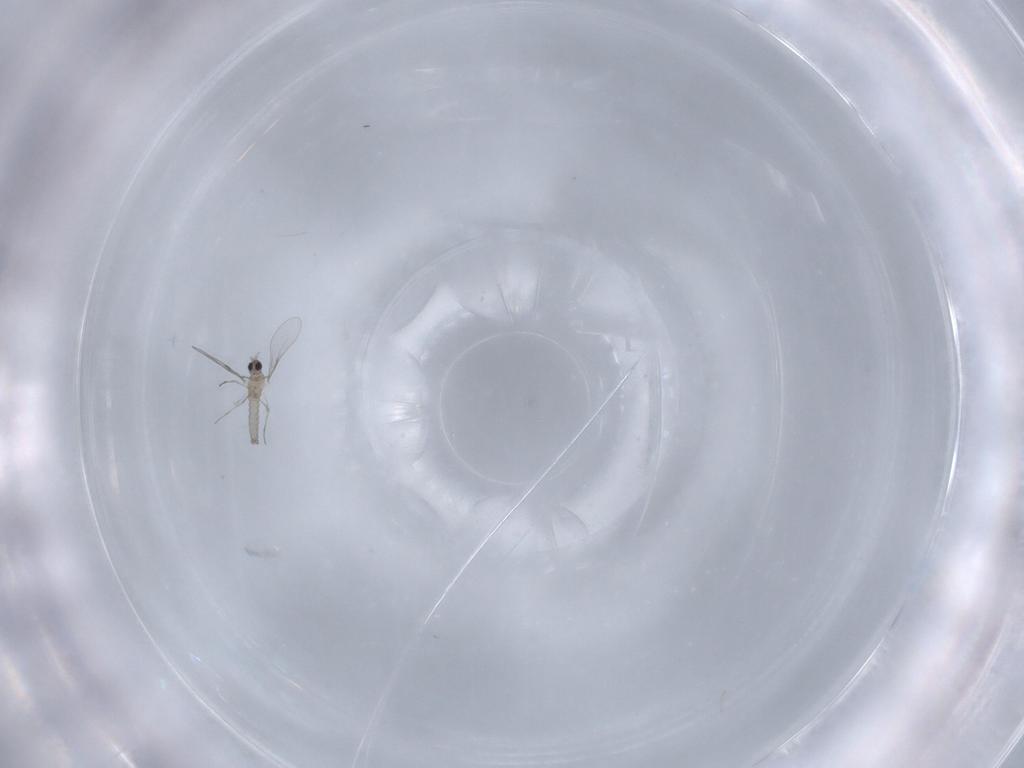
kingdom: Animalia
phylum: Arthropoda
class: Insecta
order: Diptera
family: Cecidomyiidae
